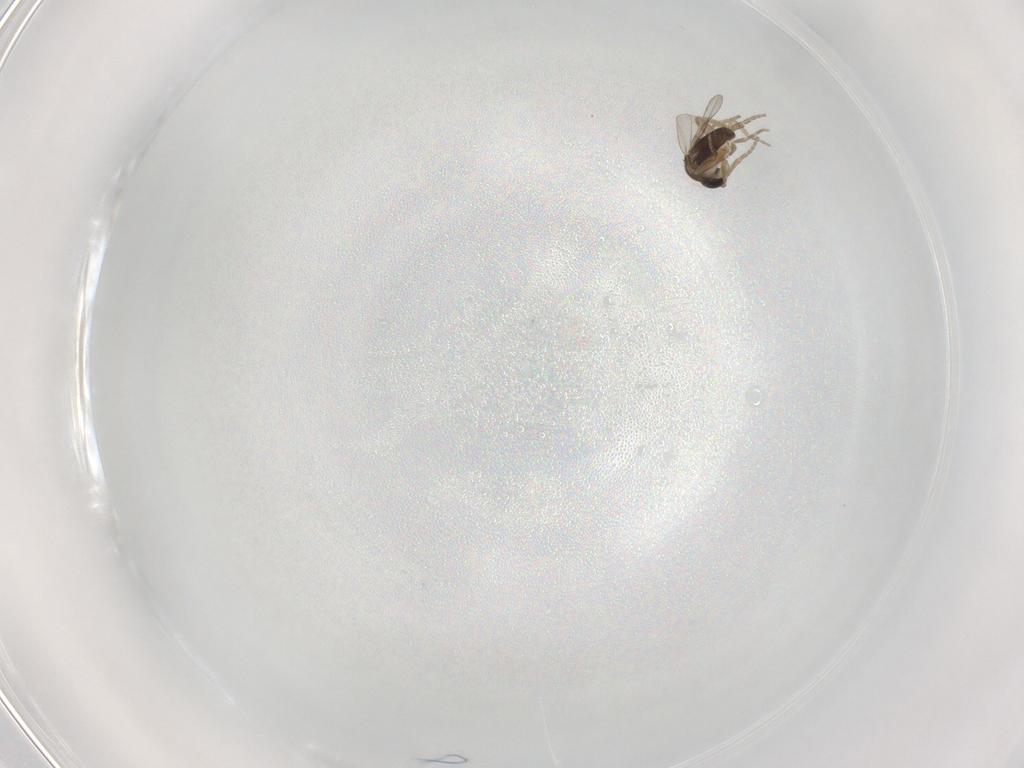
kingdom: Animalia
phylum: Arthropoda
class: Insecta
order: Diptera
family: Phoridae
